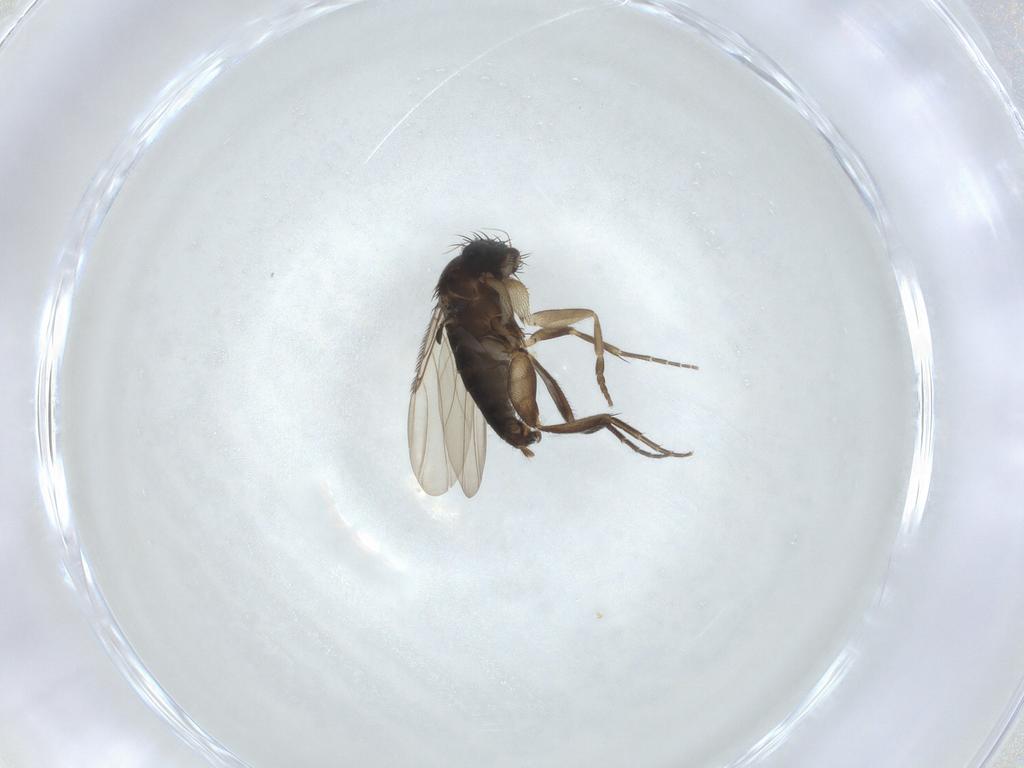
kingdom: Animalia
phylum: Arthropoda
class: Insecta
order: Diptera
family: Phoridae
